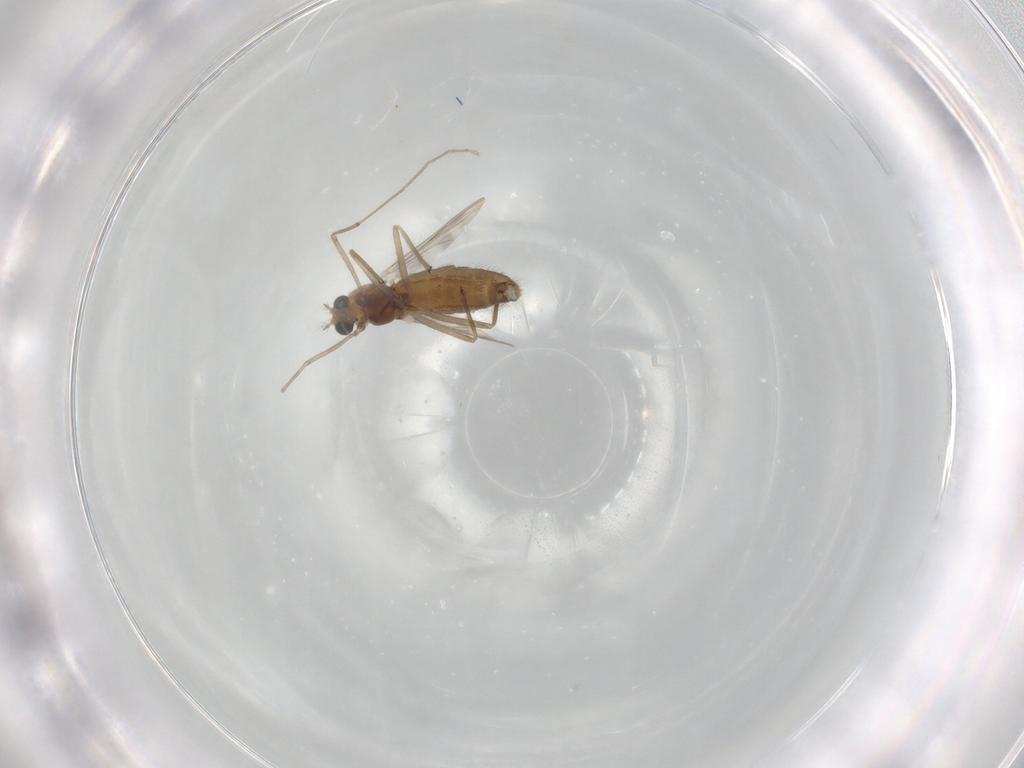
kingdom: Animalia
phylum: Arthropoda
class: Insecta
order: Diptera
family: Chironomidae
